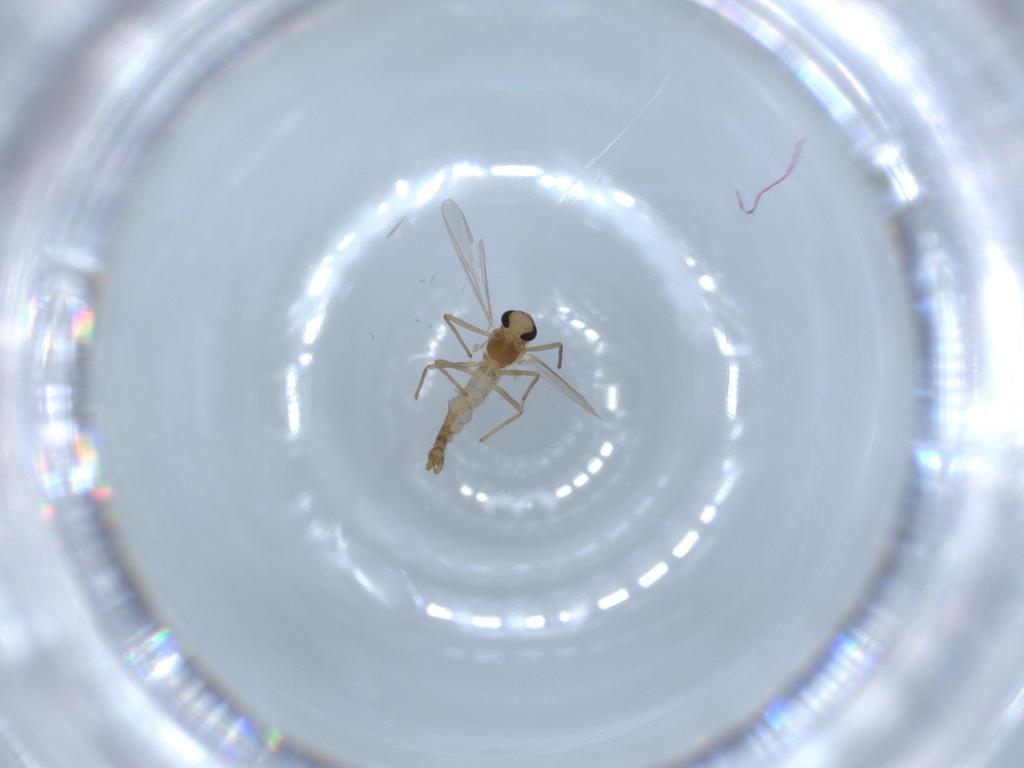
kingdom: Animalia
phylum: Arthropoda
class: Insecta
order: Diptera
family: Chironomidae
